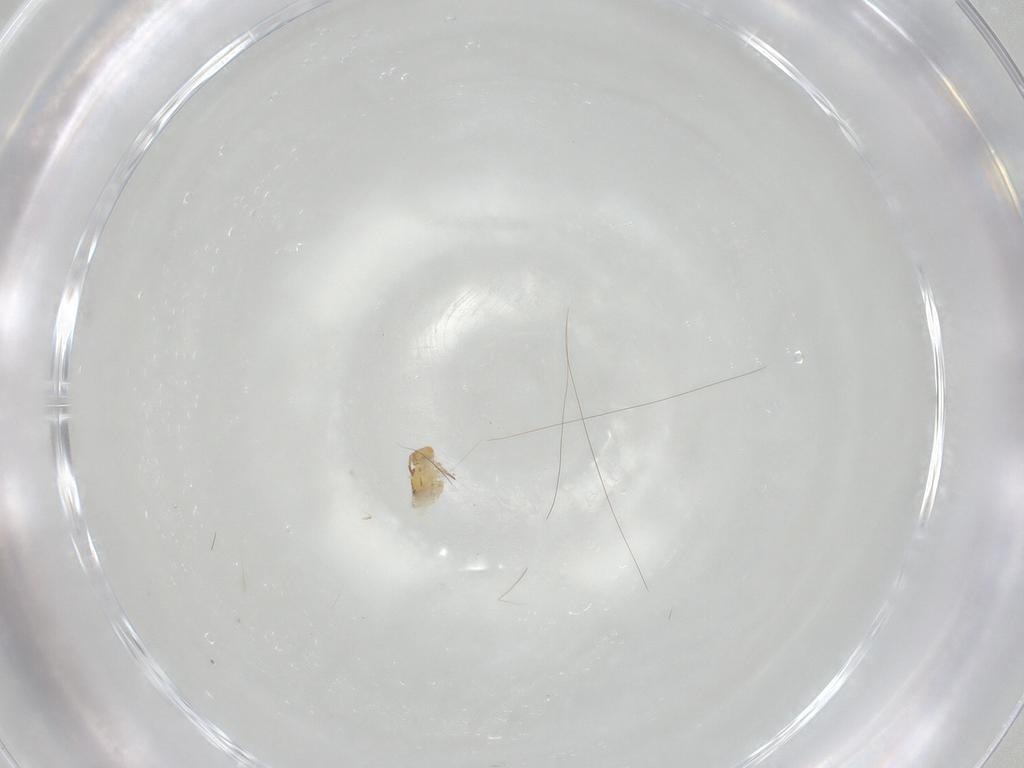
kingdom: Animalia
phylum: Arthropoda
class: Collembola
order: Symphypleona
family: Bourletiellidae
